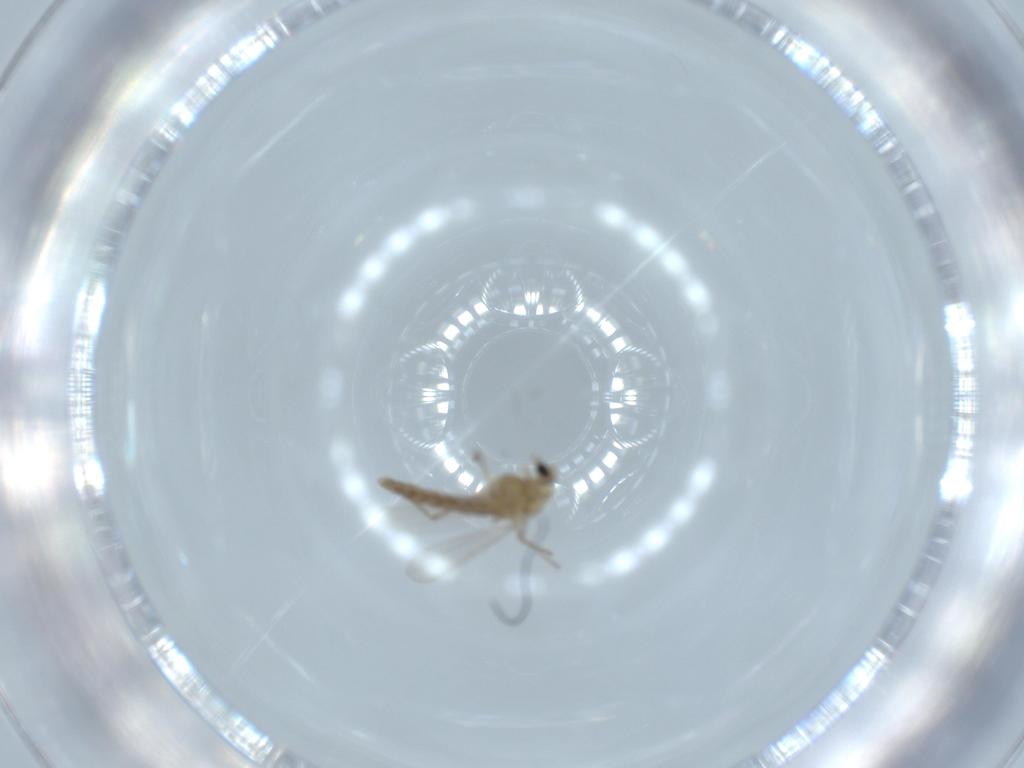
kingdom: Animalia
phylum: Arthropoda
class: Insecta
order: Diptera
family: Chironomidae
